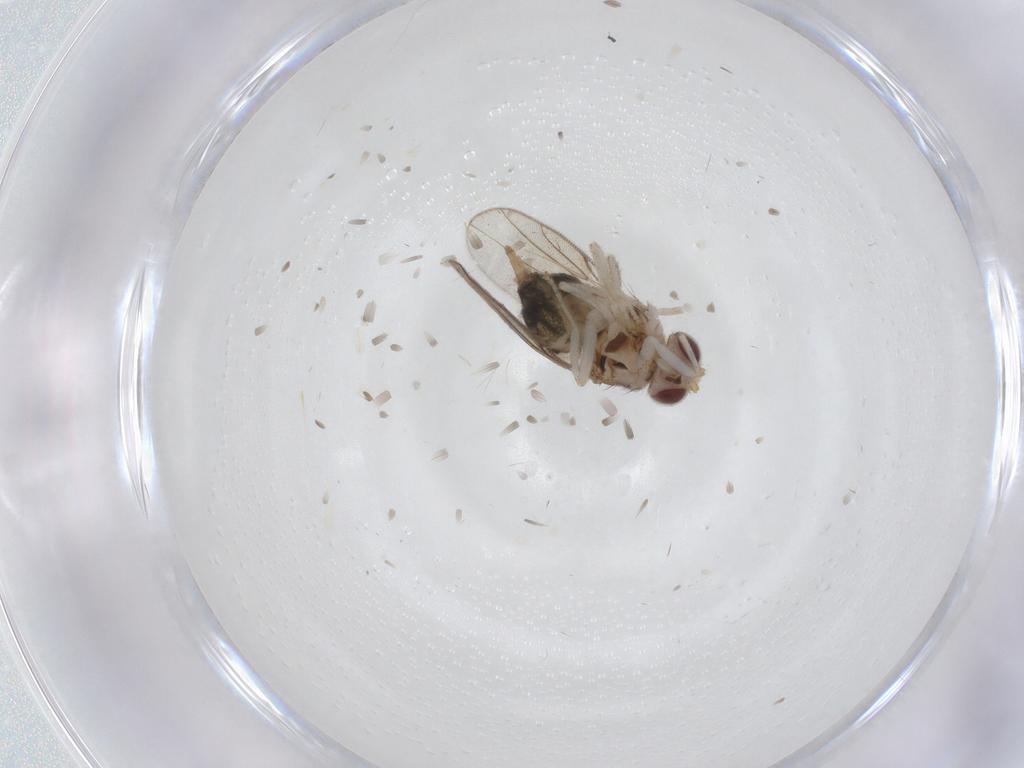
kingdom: Animalia
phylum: Arthropoda
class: Insecta
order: Diptera
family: Chloropidae
